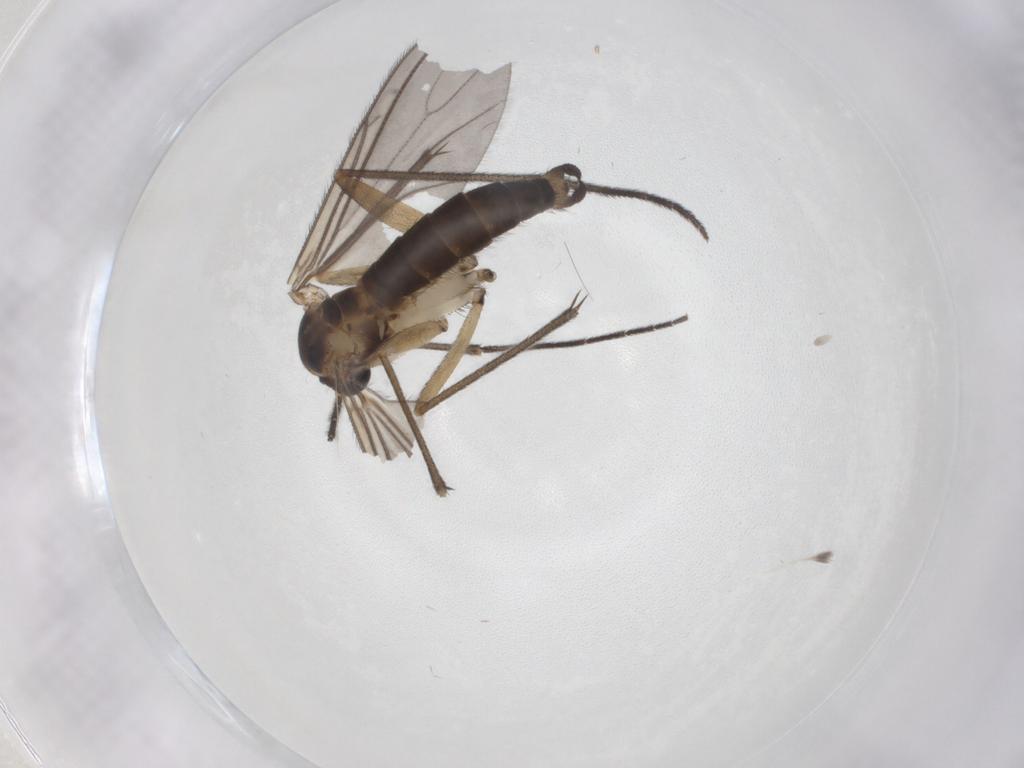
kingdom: Animalia
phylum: Arthropoda
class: Insecta
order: Diptera
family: Sciaridae
